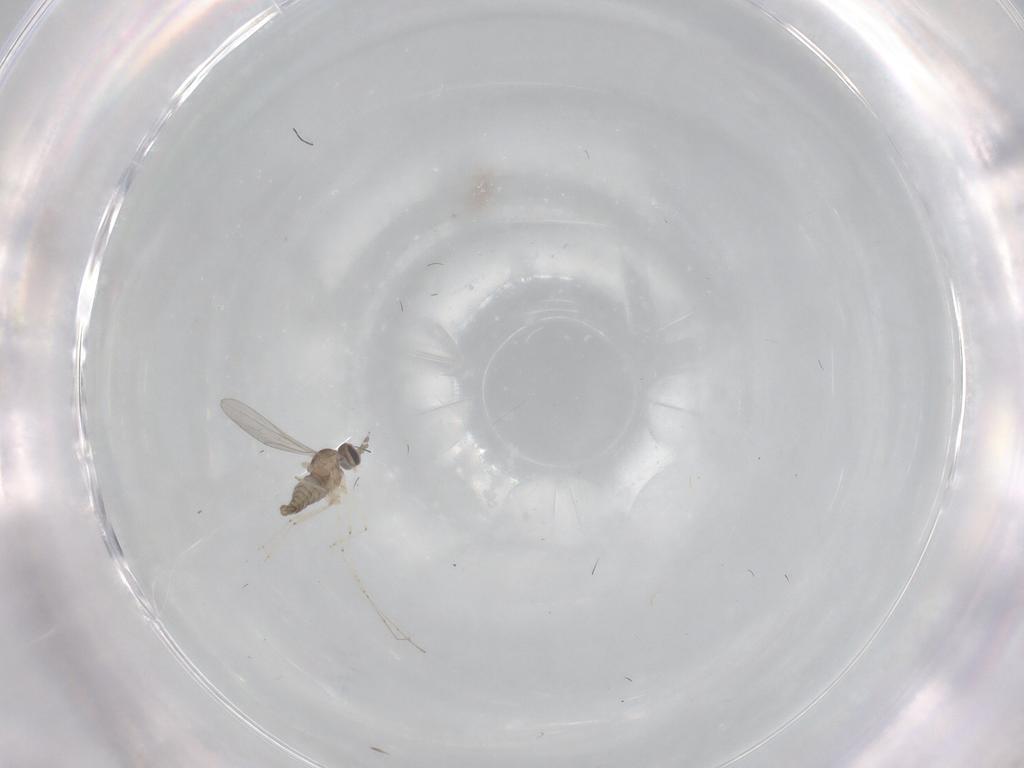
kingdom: Animalia
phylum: Arthropoda
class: Insecta
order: Diptera
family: Cecidomyiidae
